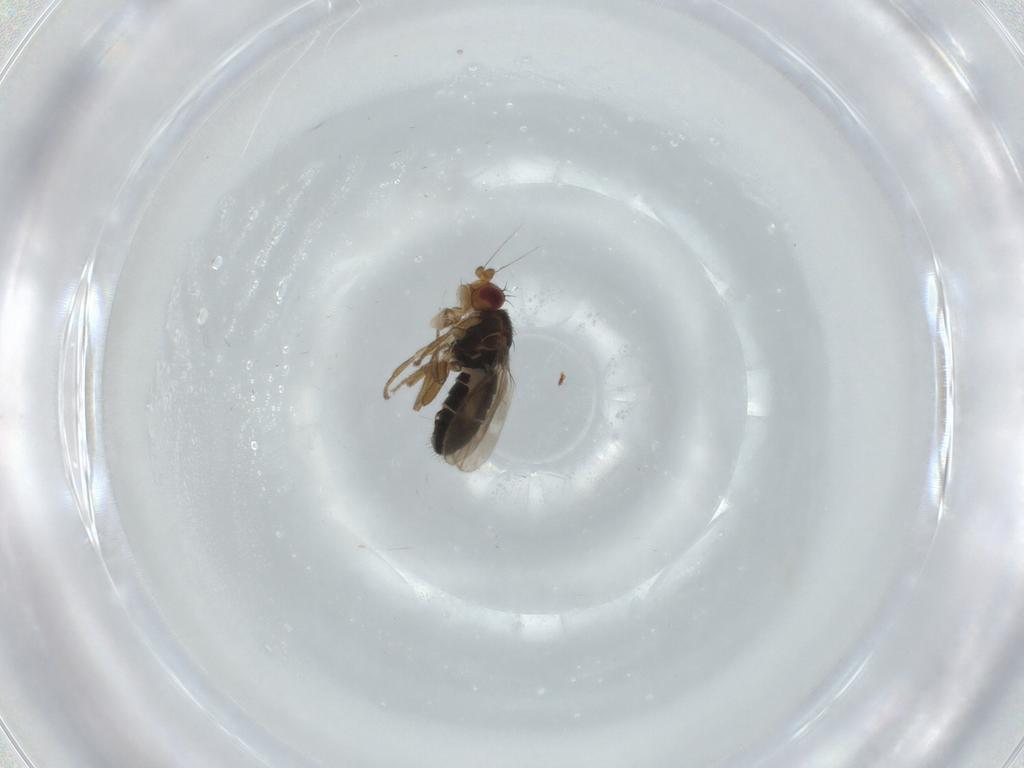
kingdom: Animalia
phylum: Arthropoda
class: Insecta
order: Diptera
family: Sphaeroceridae
